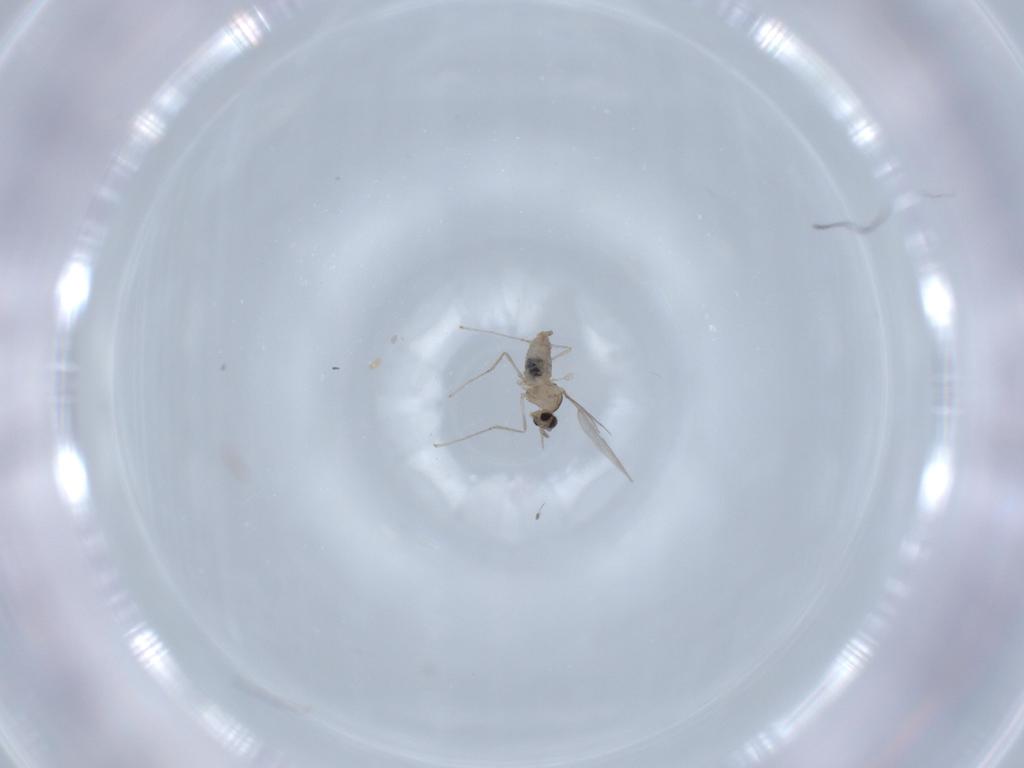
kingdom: Animalia
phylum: Arthropoda
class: Insecta
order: Diptera
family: Cecidomyiidae
